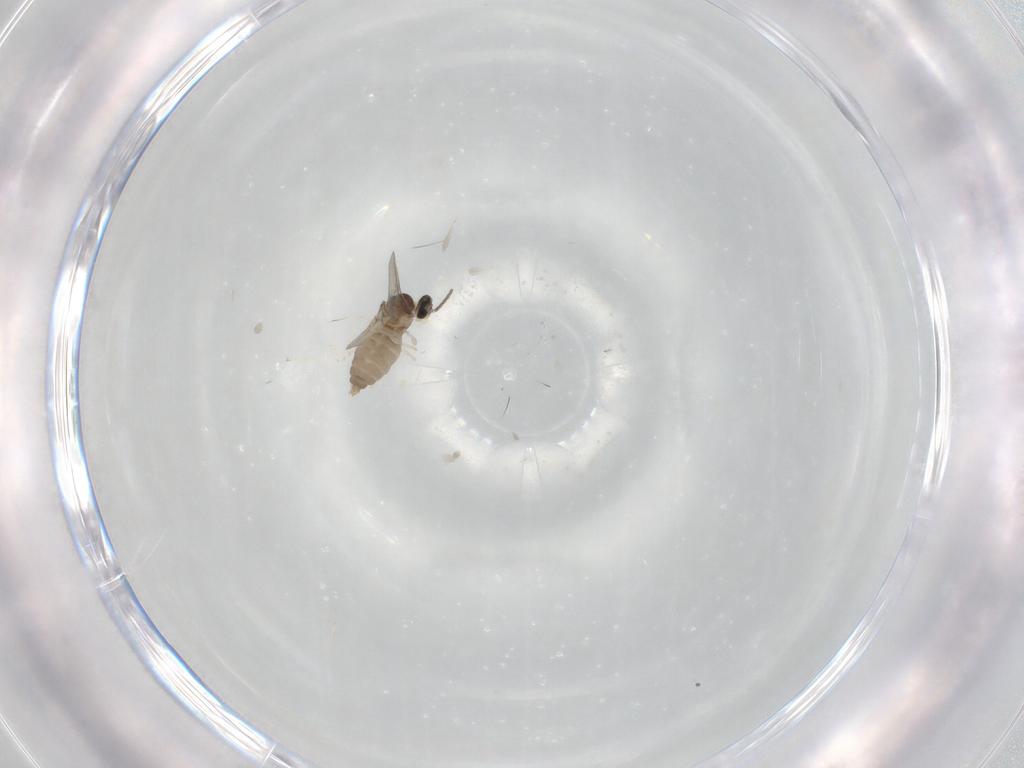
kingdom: Animalia
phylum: Arthropoda
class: Insecta
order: Diptera
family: Cecidomyiidae
